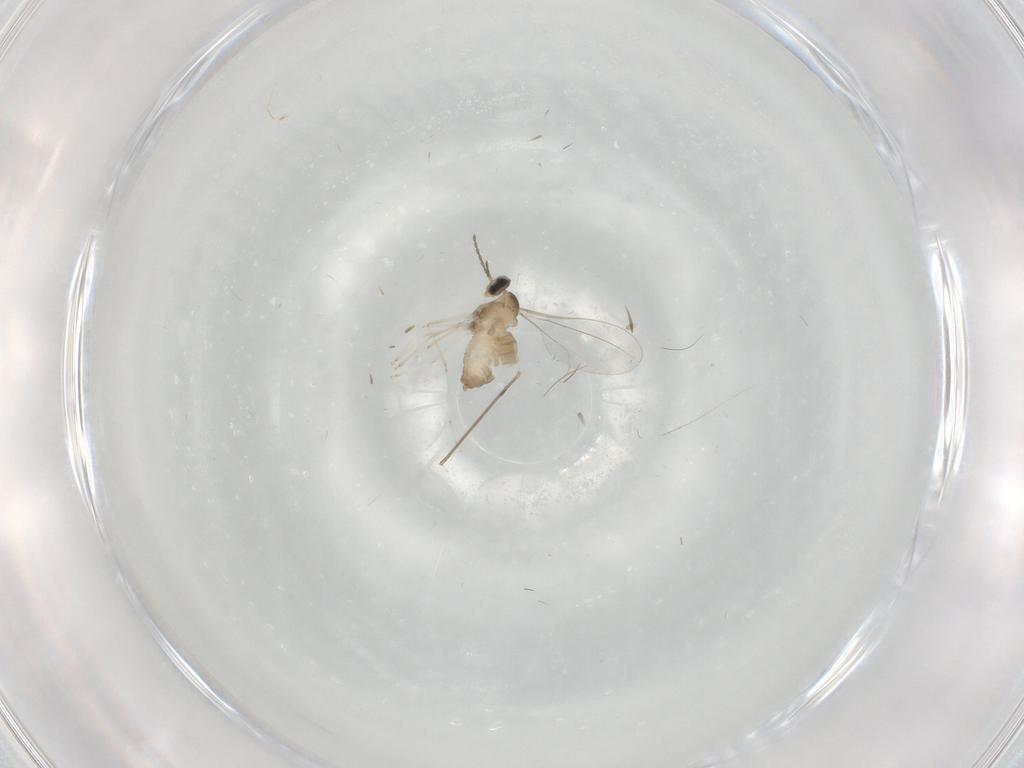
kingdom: Animalia
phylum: Arthropoda
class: Insecta
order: Diptera
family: Cecidomyiidae
